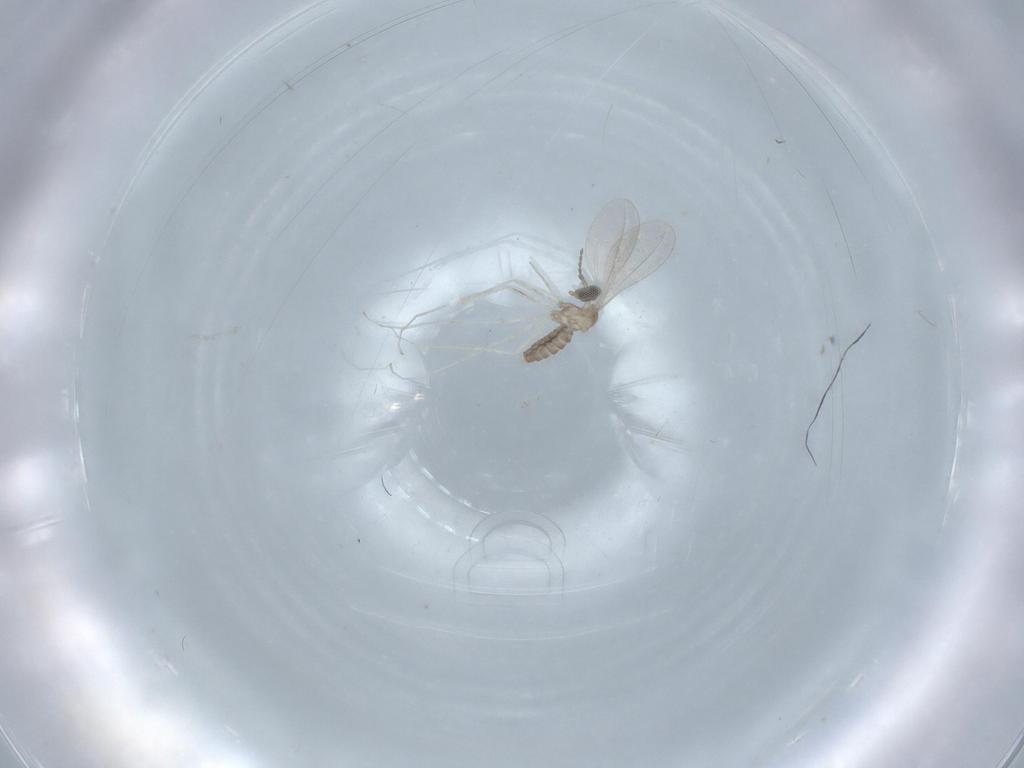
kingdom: Animalia
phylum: Arthropoda
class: Insecta
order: Diptera
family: Cecidomyiidae
